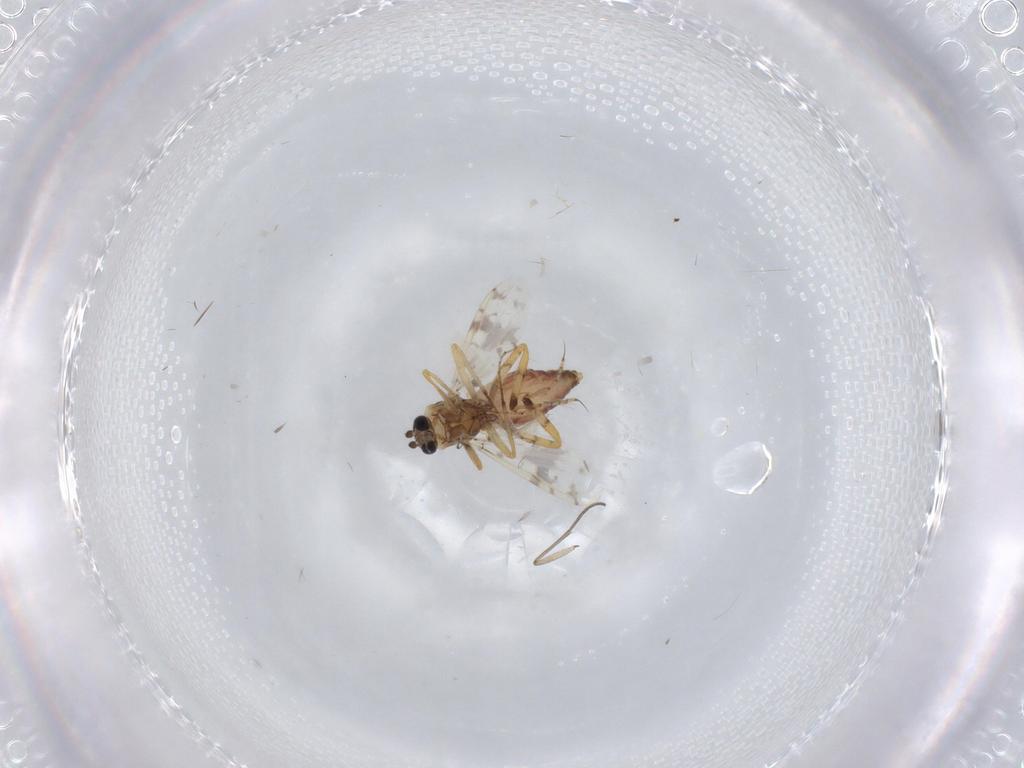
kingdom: Animalia
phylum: Arthropoda
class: Insecta
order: Diptera
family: Ceratopogonidae
